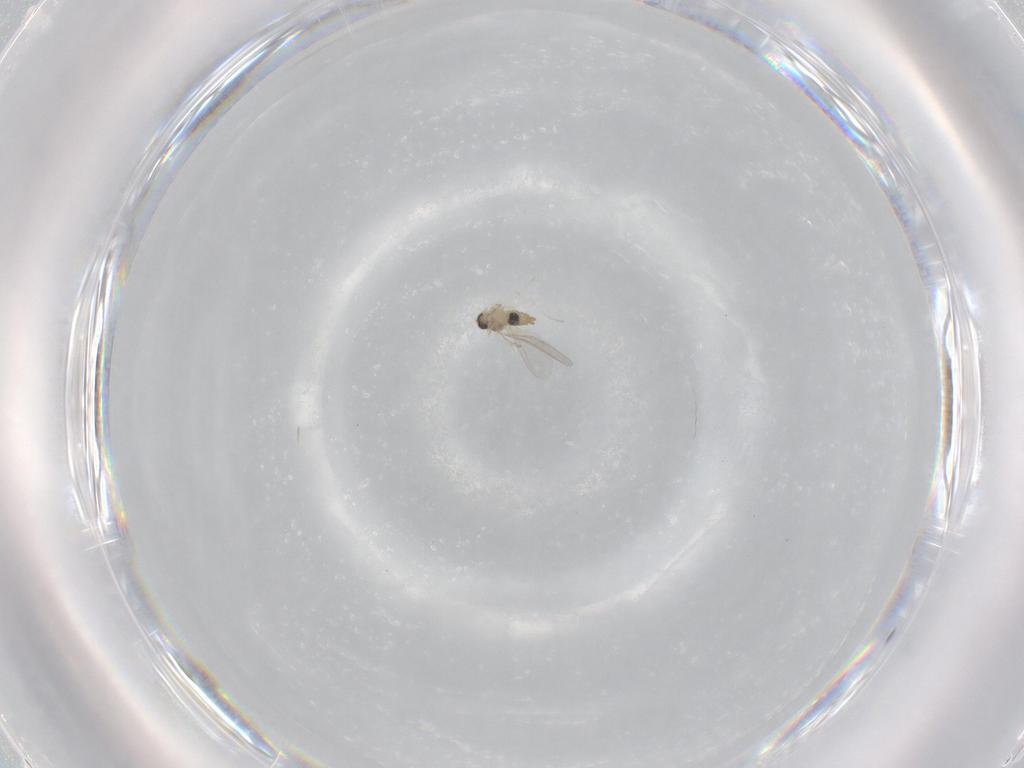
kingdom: Animalia
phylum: Arthropoda
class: Insecta
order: Diptera
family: Cecidomyiidae
